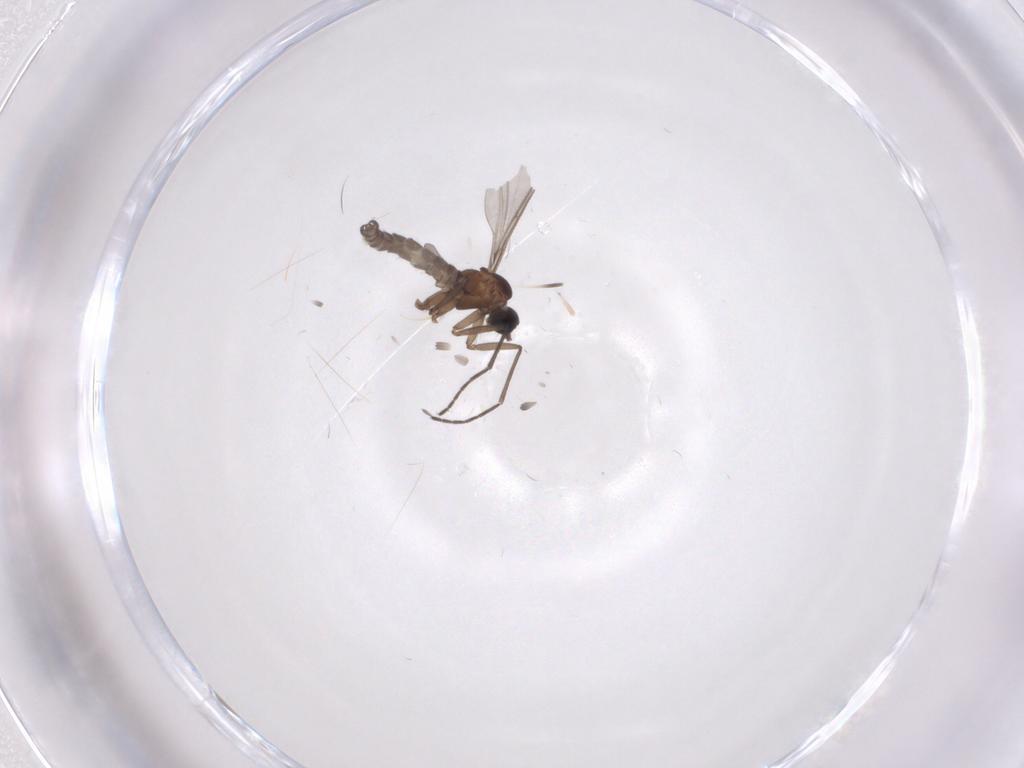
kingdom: Animalia
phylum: Arthropoda
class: Insecta
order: Diptera
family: Sciaridae
